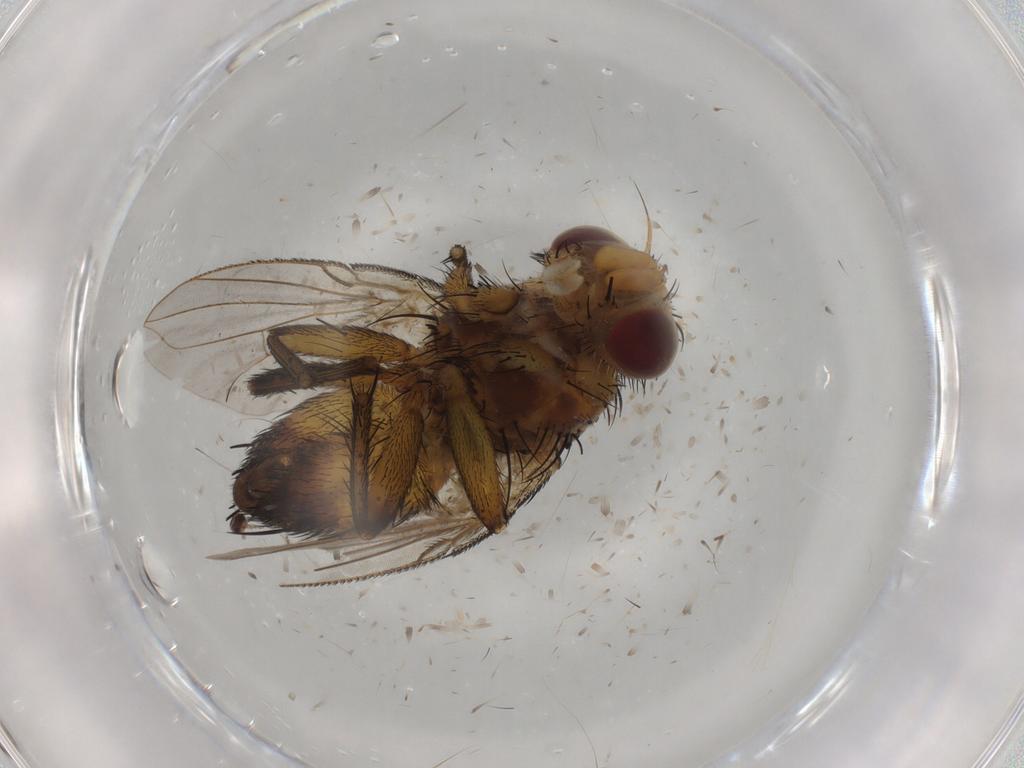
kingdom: Animalia
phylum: Arthropoda
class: Insecta
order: Diptera
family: Tachinidae
